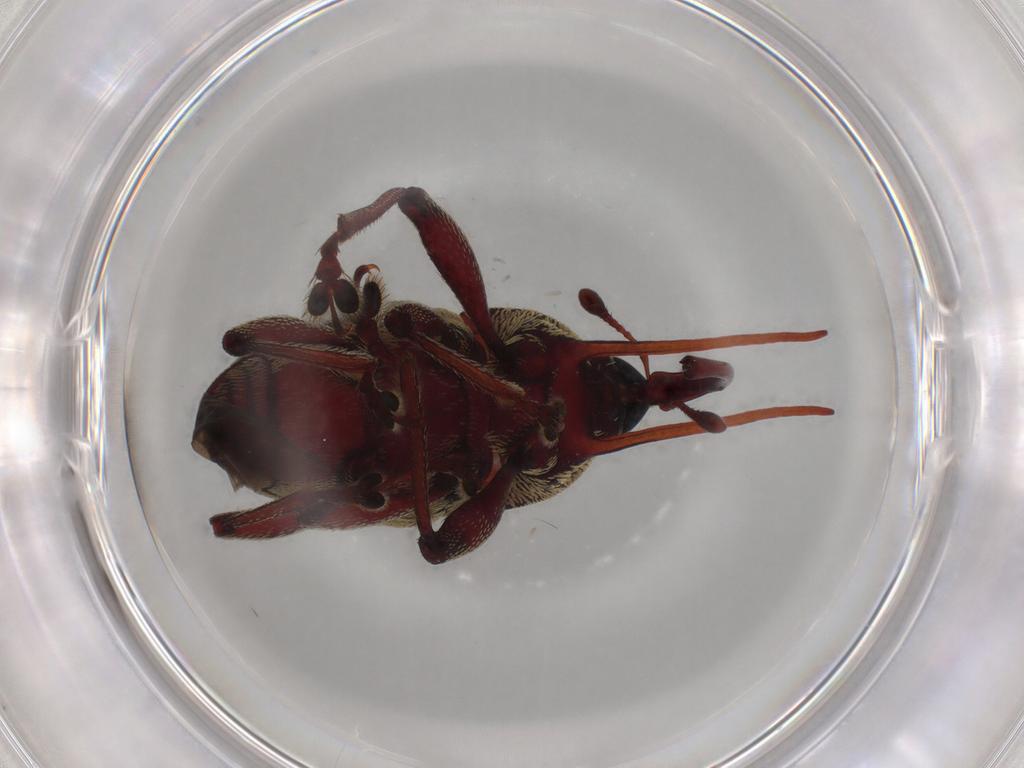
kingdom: Animalia
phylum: Arthropoda
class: Insecta
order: Coleoptera
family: Curculionidae
